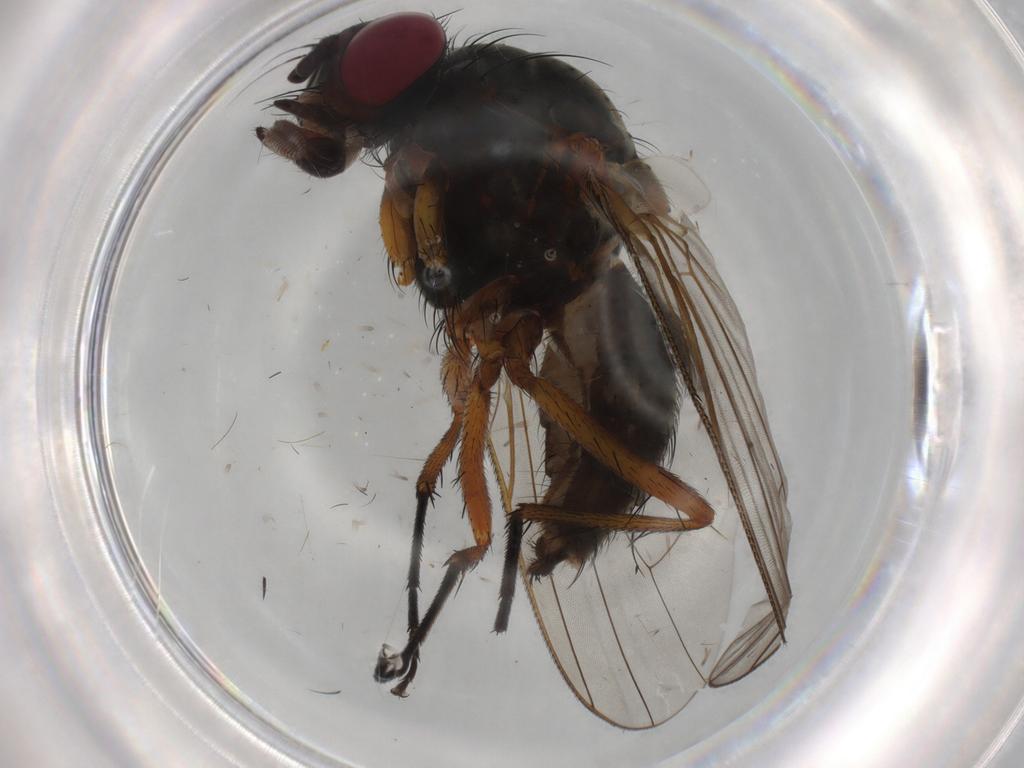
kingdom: Animalia
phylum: Arthropoda
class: Insecta
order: Diptera
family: Anthomyiidae
